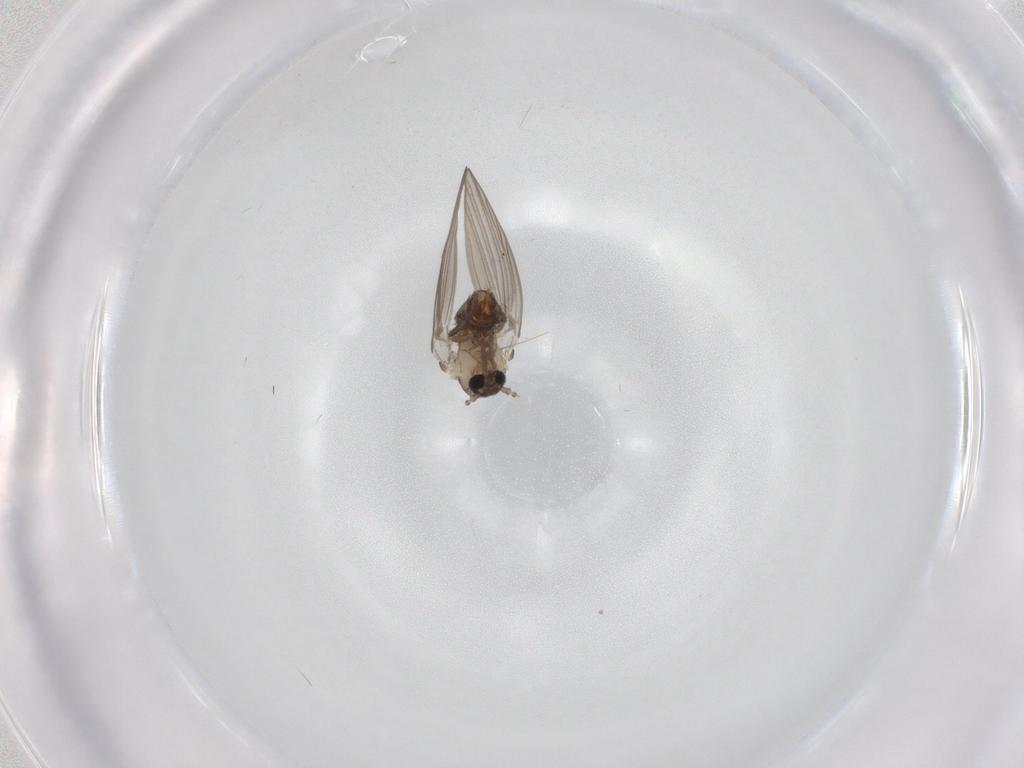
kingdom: Animalia
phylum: Arthropoda
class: Insecta
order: Diptera
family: Psychodidae
